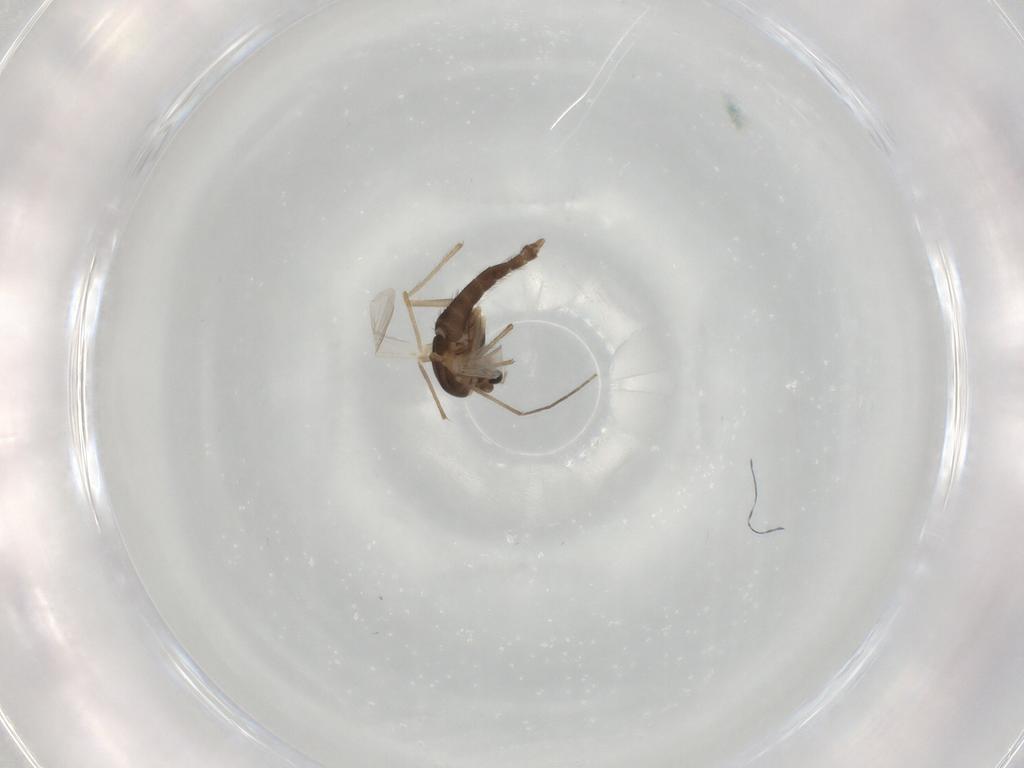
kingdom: Animalia
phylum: Arthropoda
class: Insecta
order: Diptera
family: Chironomidae
